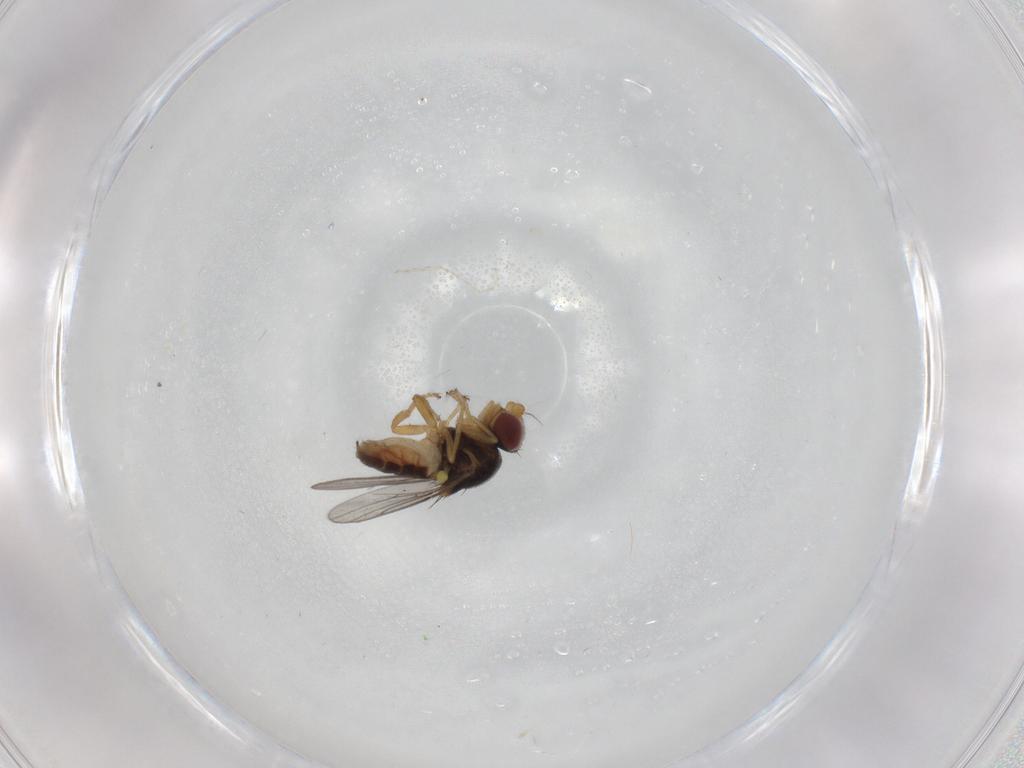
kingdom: Animalia
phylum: Arthropoda
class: Insecta
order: Diptera
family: Chloropidae
